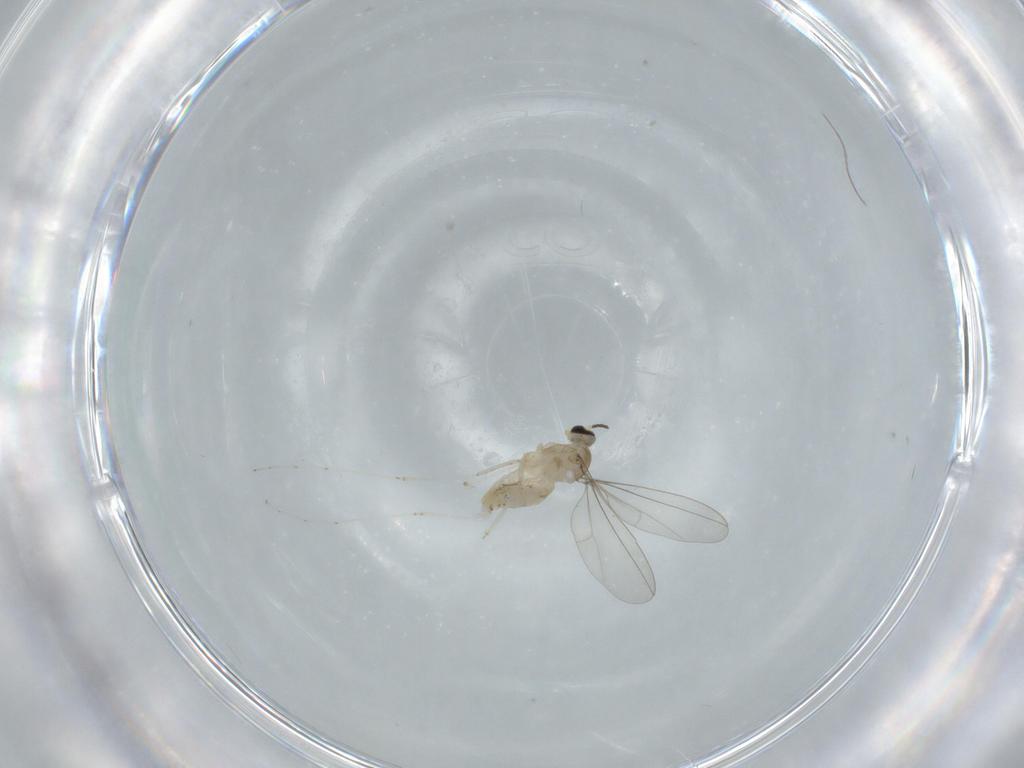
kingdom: Animalia
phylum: Arthropoda
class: Insecta
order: Diptera
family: Cecidomyiidae
